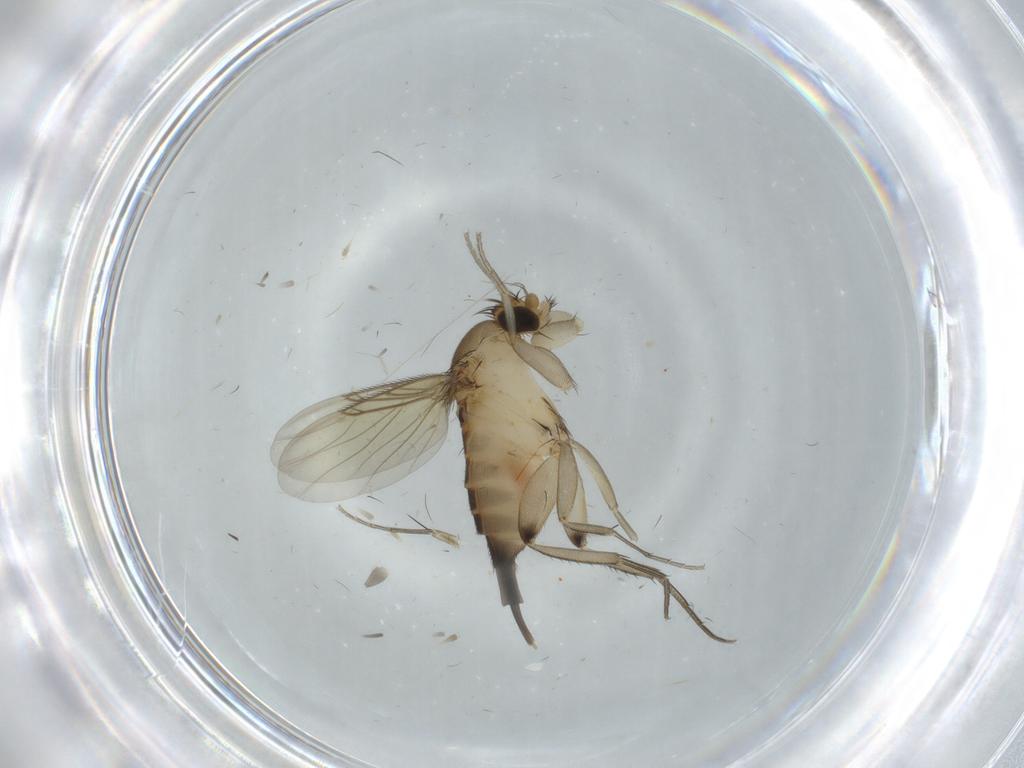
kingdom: Animalia
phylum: Arthropoda
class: Insecta
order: Diptera
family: Phoridae
